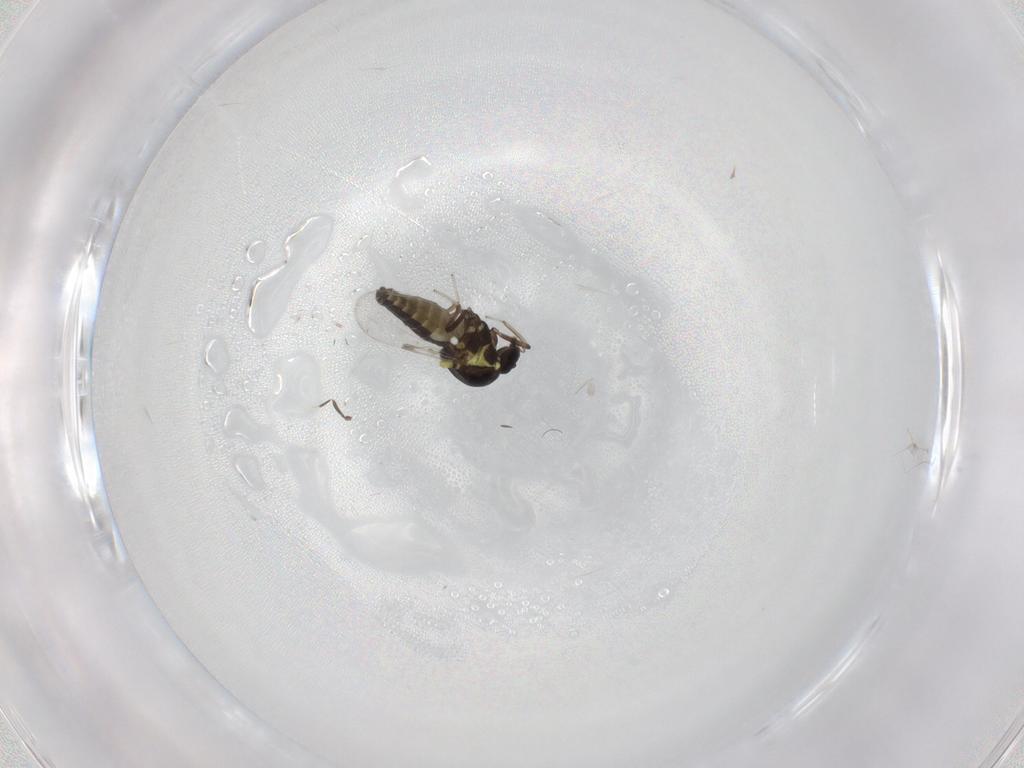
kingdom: Animalia
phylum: Arthropoda
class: Insecta
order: Diptera
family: Ceratopogonidae
